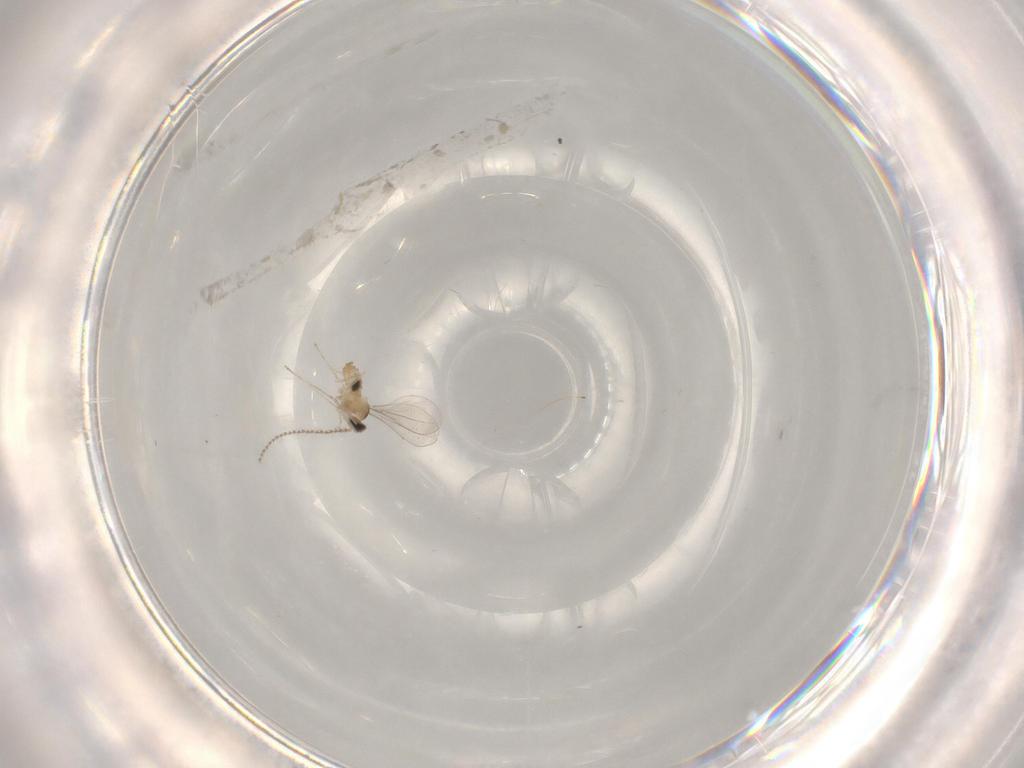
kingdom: Animalia
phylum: Arthropoda
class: Insecta
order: Diptera
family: Cecidomyiidae
